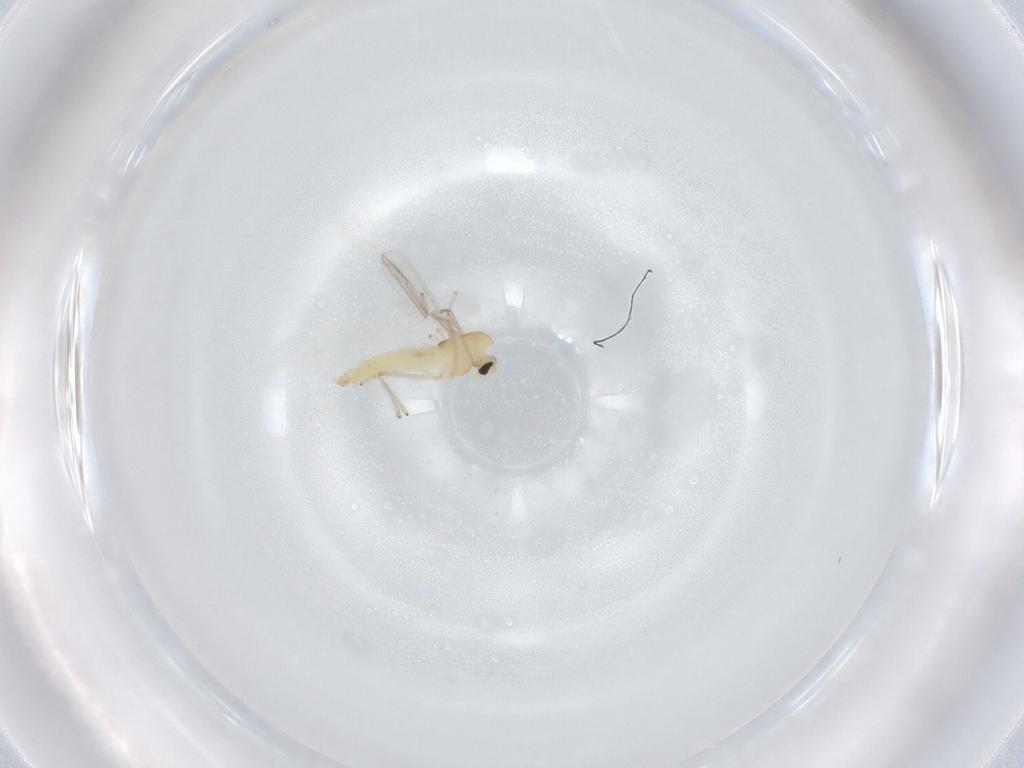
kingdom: Animalia
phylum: Arthropoda
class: Insecta
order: Diptera
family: Chironomidae
